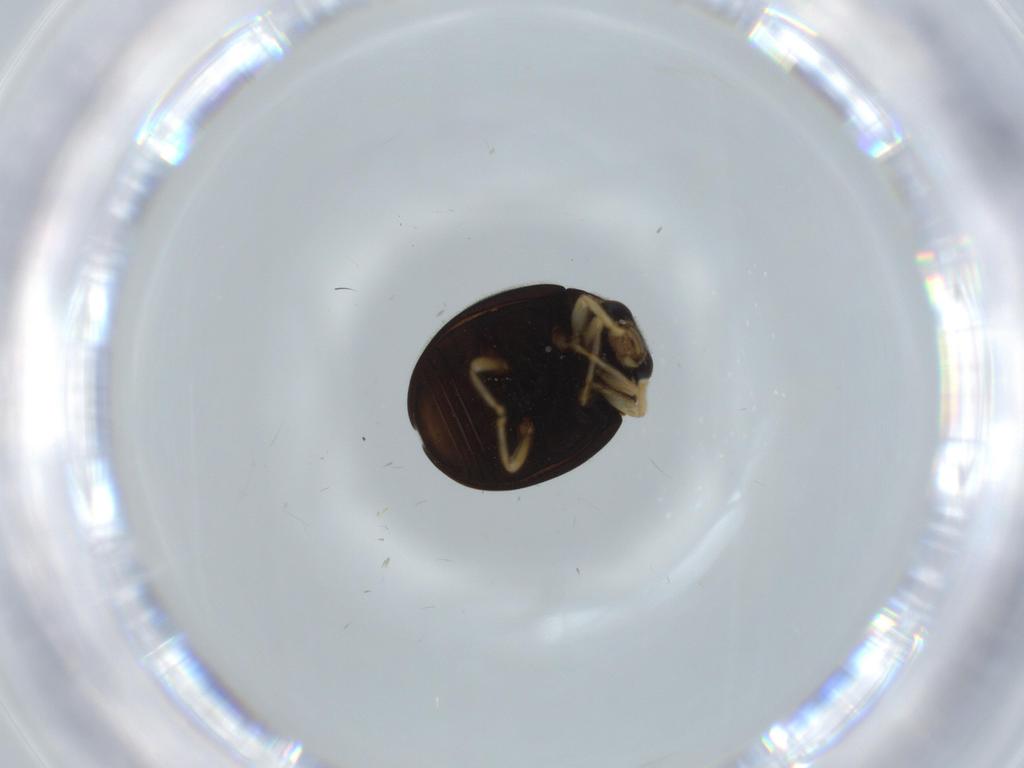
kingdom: Animalia
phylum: Arthropoda
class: Insecta
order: Coleoptera
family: Coccinellidae
